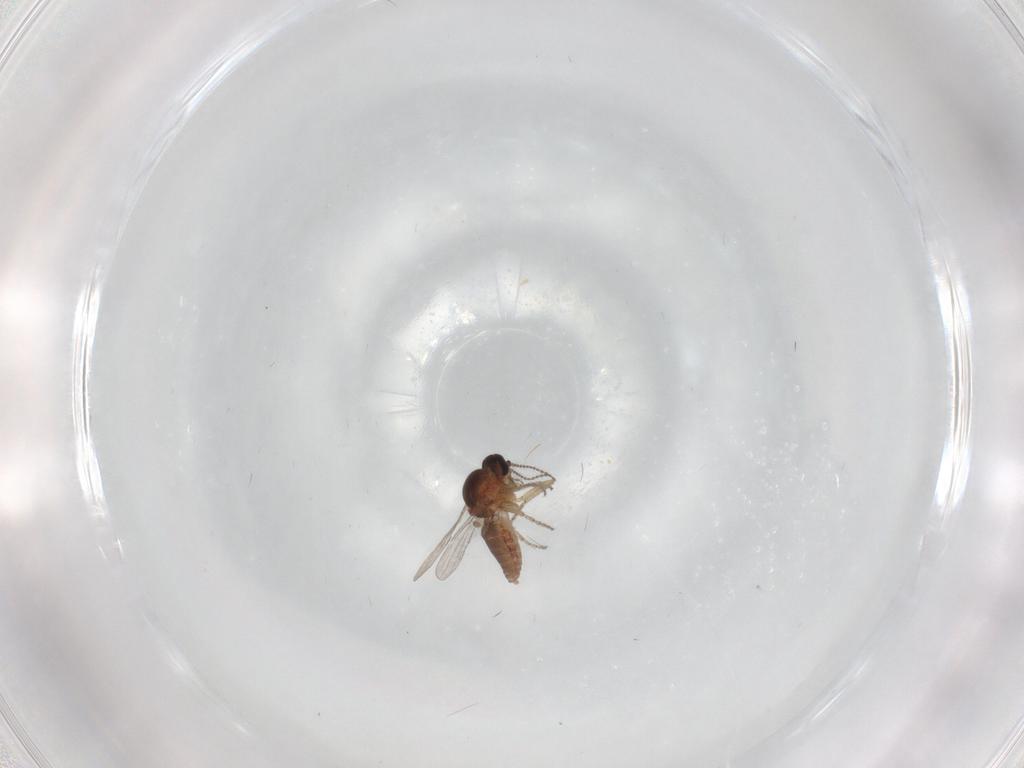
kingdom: Animalia
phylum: Arthropoda
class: Insecta
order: Diptera
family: Ceratopogonidae
